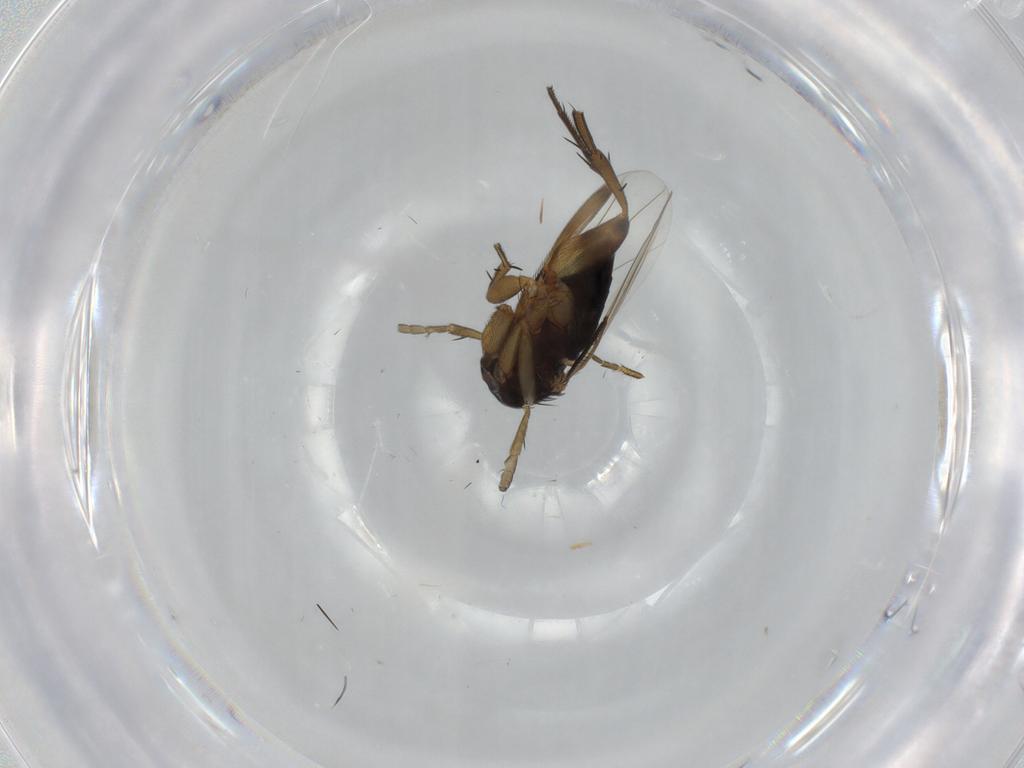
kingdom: Animalia
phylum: Arthropoda
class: Insecta
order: Diptera
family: Phoridae
